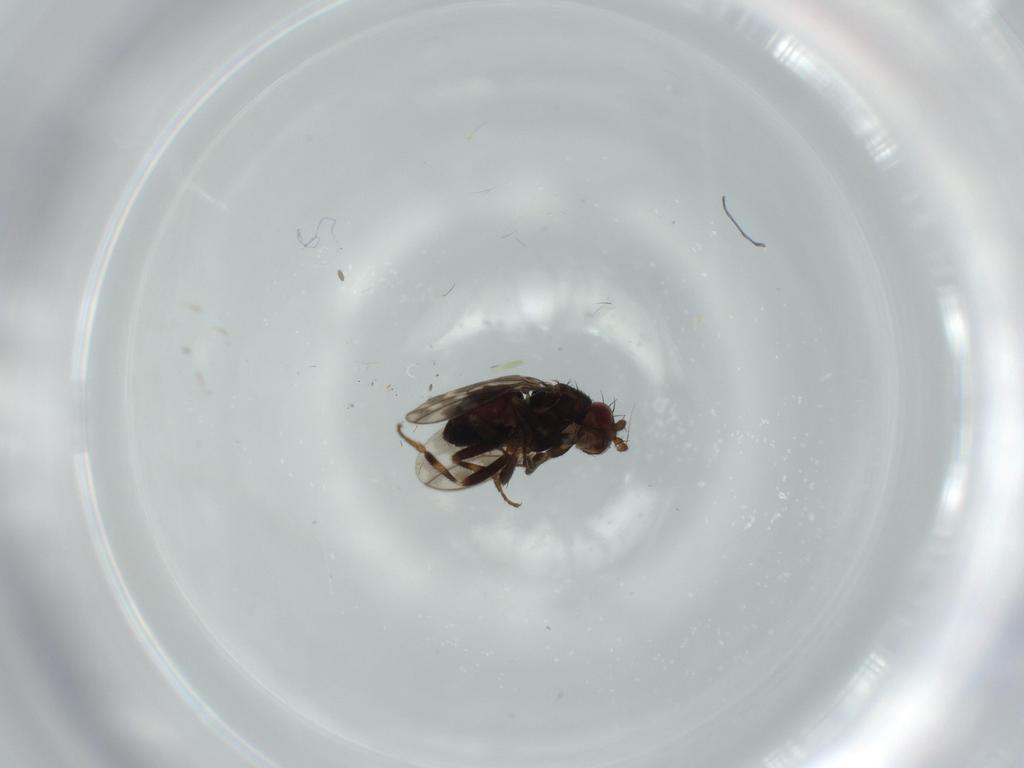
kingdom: Animalia
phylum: Arthropoda
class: Insecta
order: Diptera
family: Sphaeroceridae
